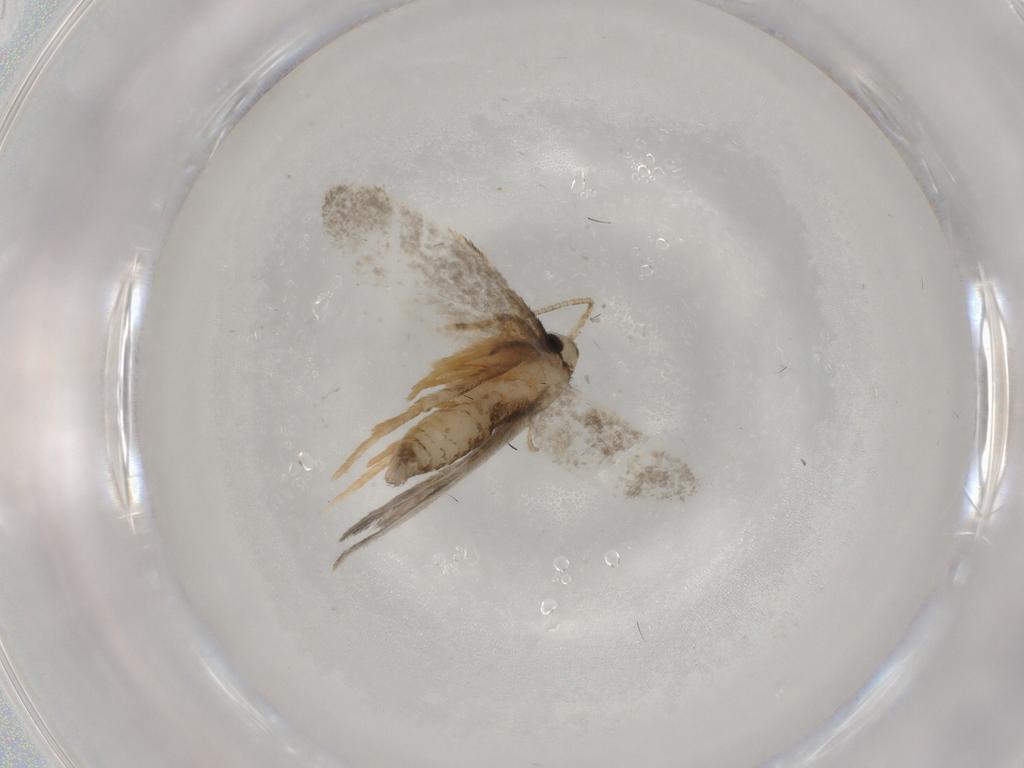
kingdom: Animalia
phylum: Arthropoda
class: Insecta
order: Lepidoptera
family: Psychidae
